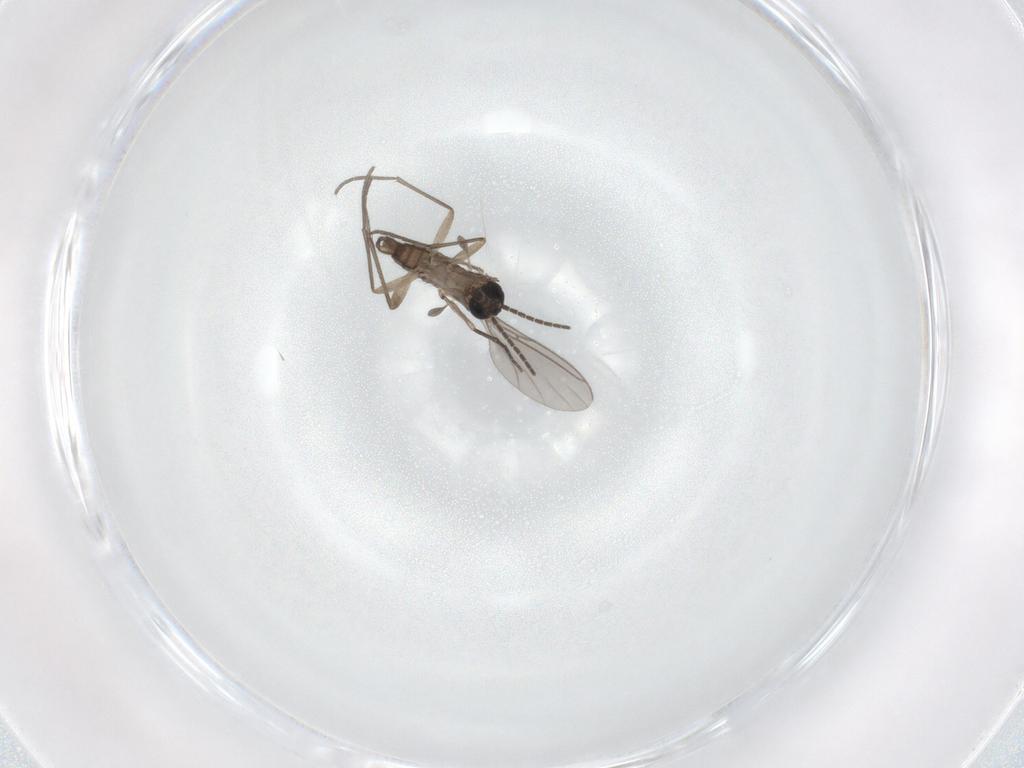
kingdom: Animalia
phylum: Arthropoda
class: Insecta
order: Diptera
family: Sciaridae
